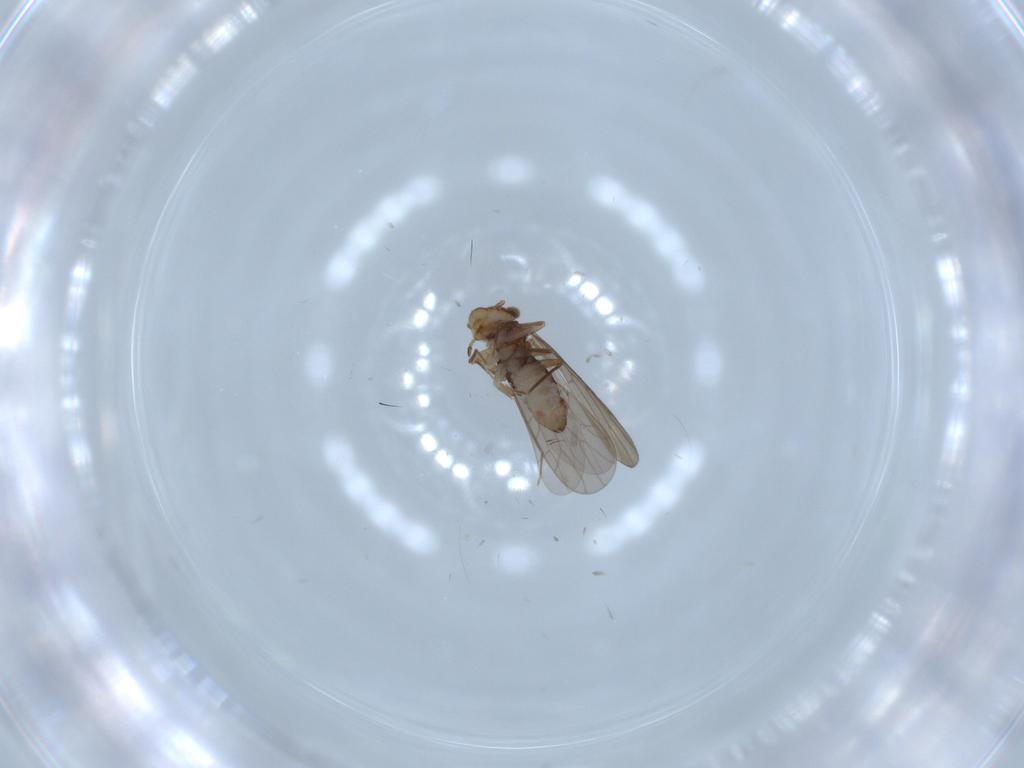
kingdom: Animalia
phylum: Arthropoda
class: Insecta
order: Psocodea
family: Lepidopsocidae
